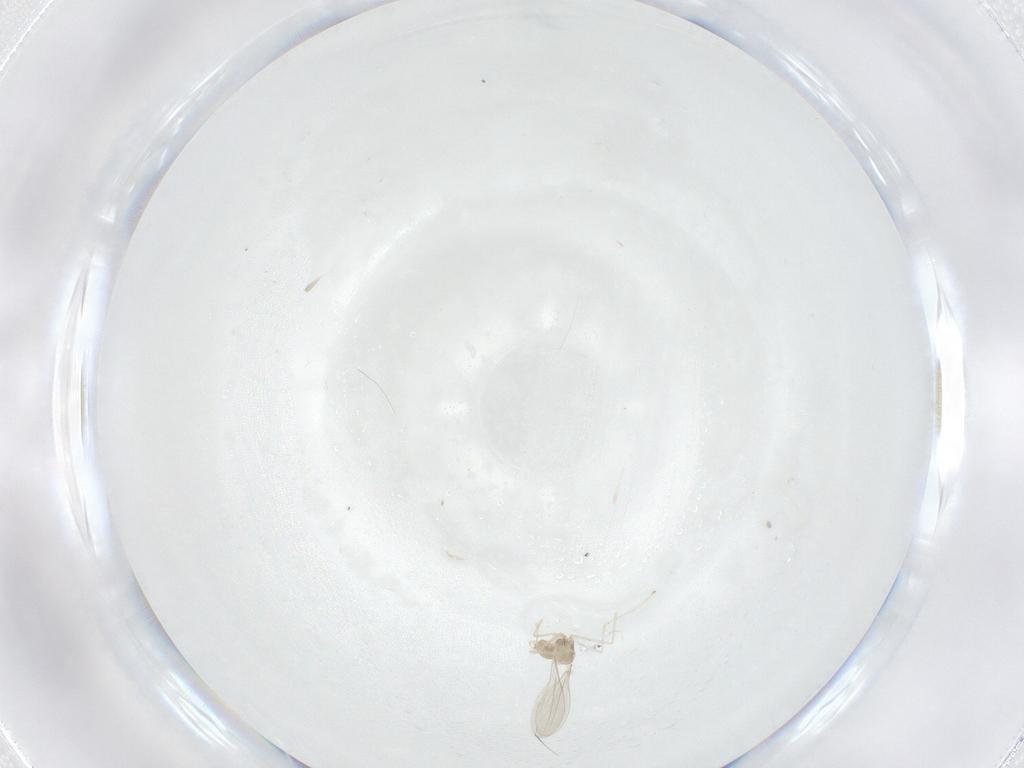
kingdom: Animalia
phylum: Arthropoda
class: Insecta
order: Diptera
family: Cecidomyiidae
